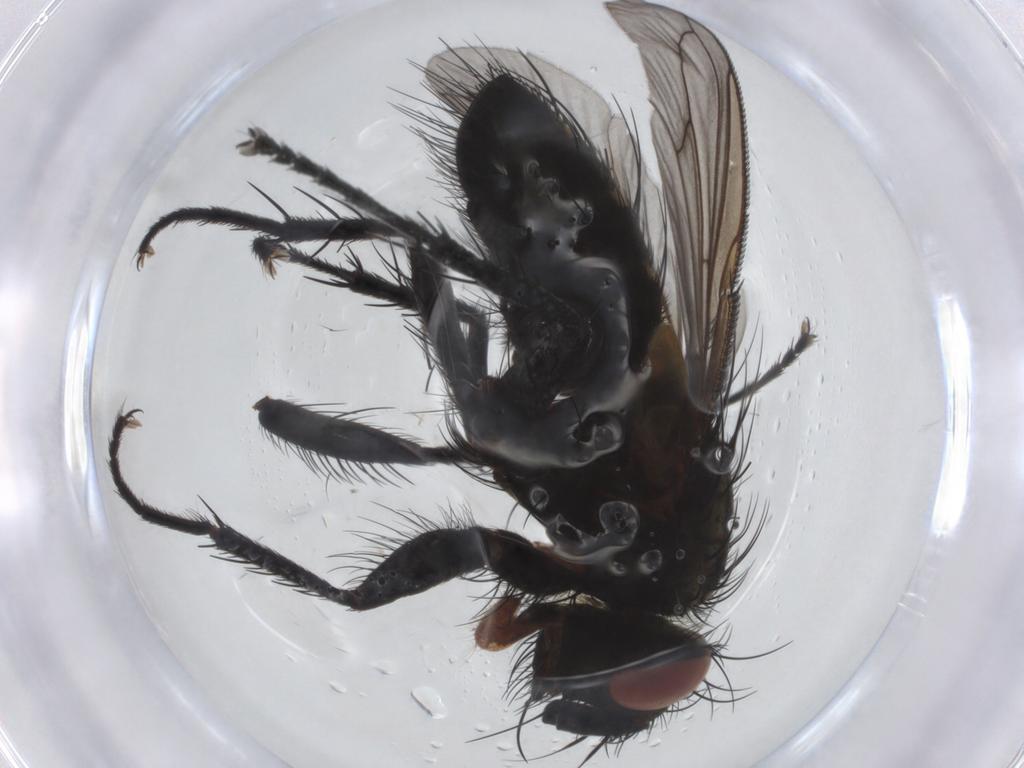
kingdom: Animalia
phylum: Arthropoda
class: Insecta
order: Diptera
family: Tachinidae
